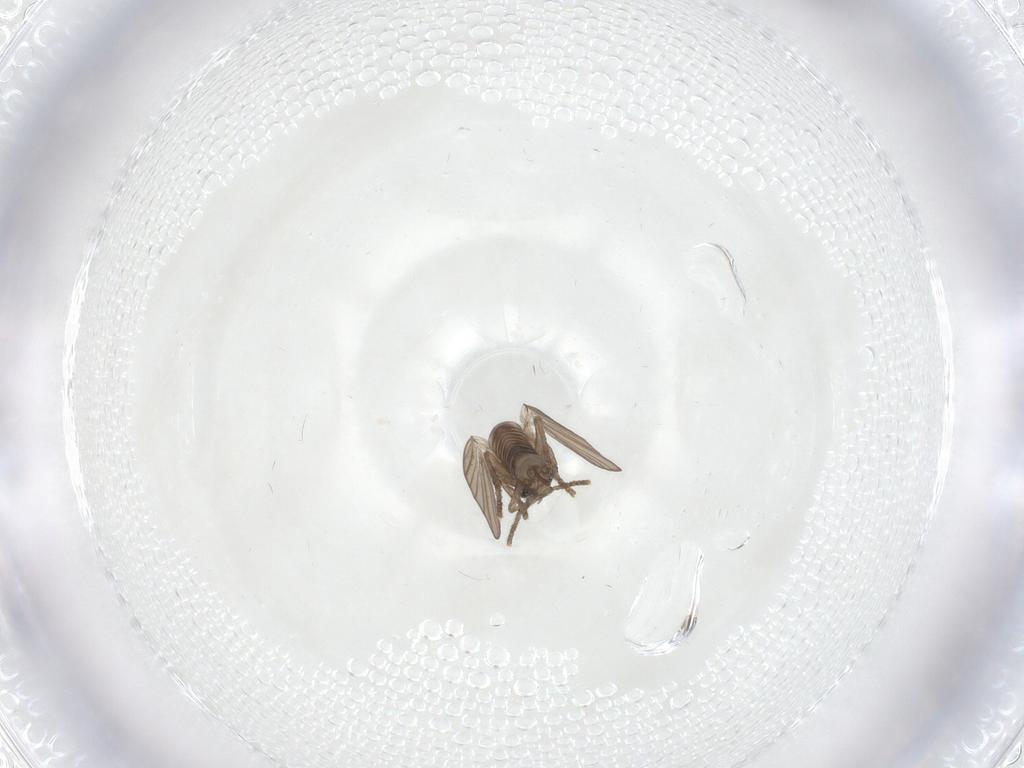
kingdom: Animalia
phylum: Arthropoda
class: Insecta
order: Diptera
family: Psychodidae
